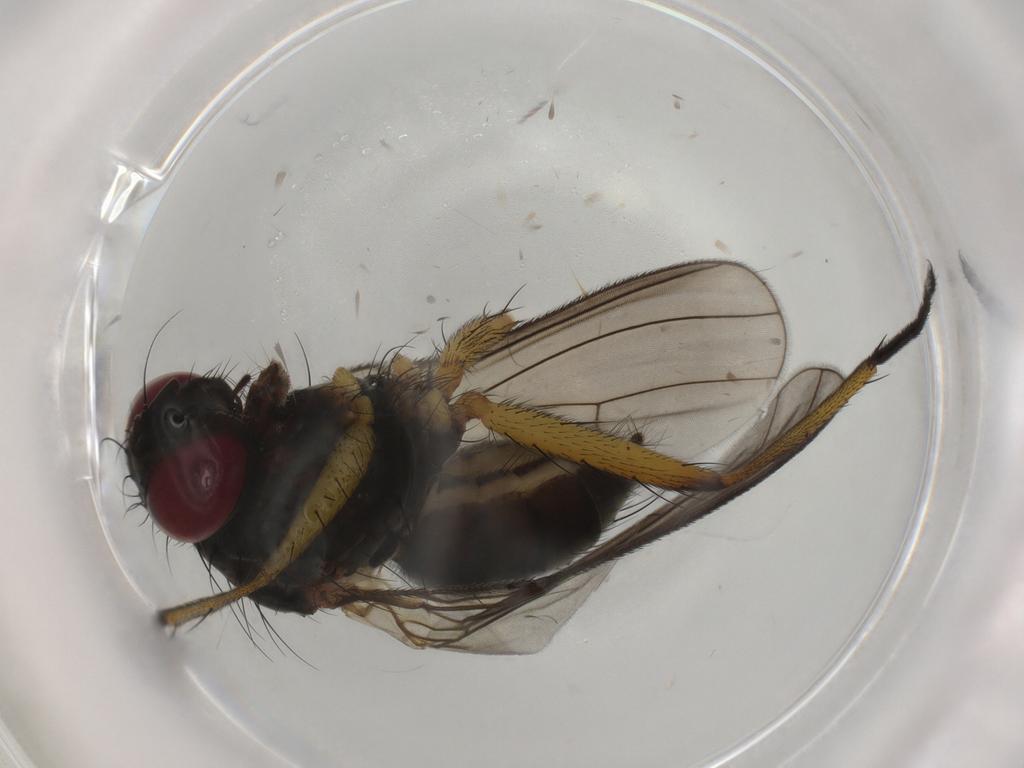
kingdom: Animalia
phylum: Arthropoda
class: Insecta
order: Diptera
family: Muscidae
